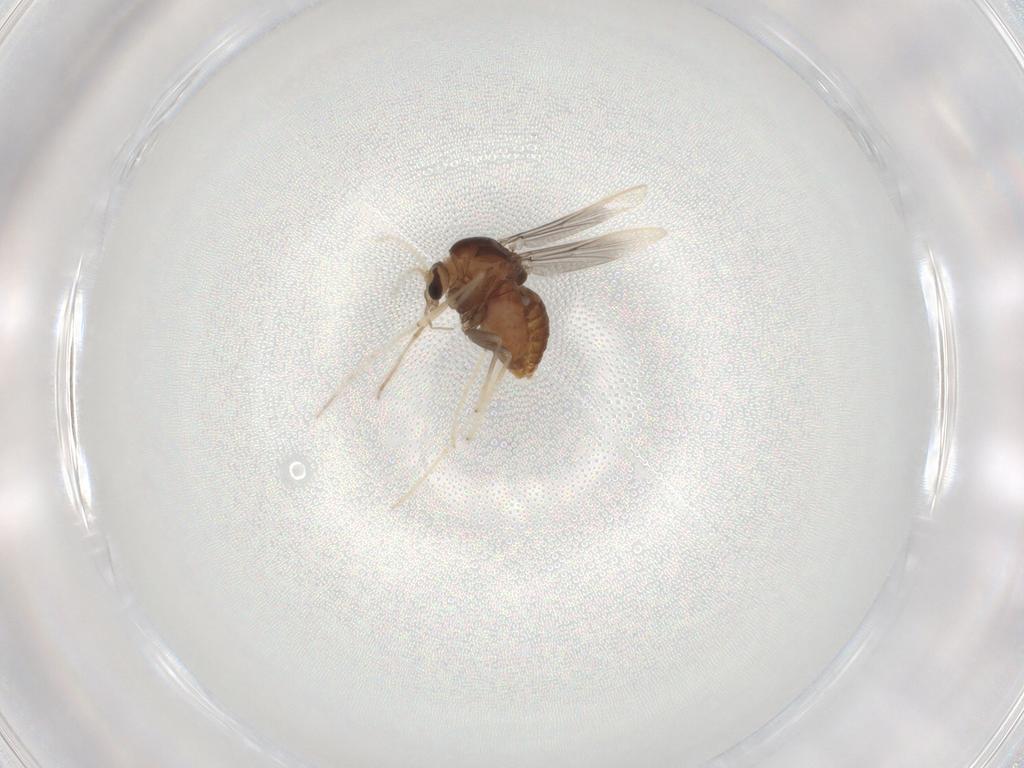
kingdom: Animalia
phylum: Arthropoda
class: Insecta
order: Diptera
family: Chironomidae
